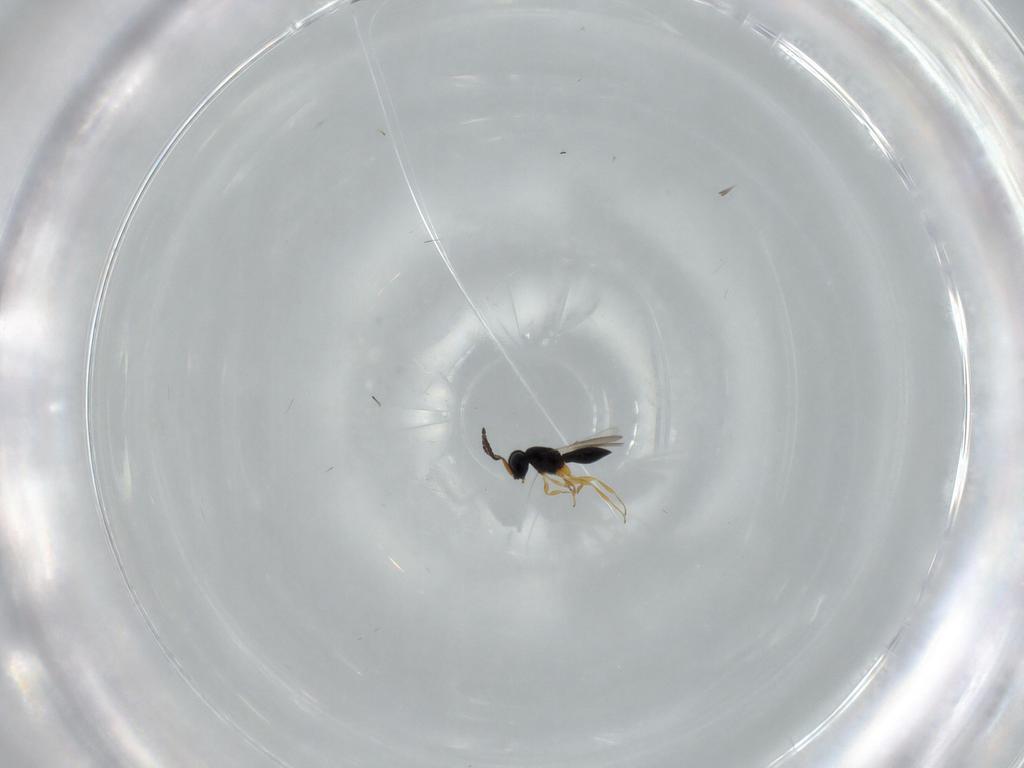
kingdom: Animalia
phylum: Arthropoda
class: Insecta
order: Hymenoptera
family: Scelionidae
